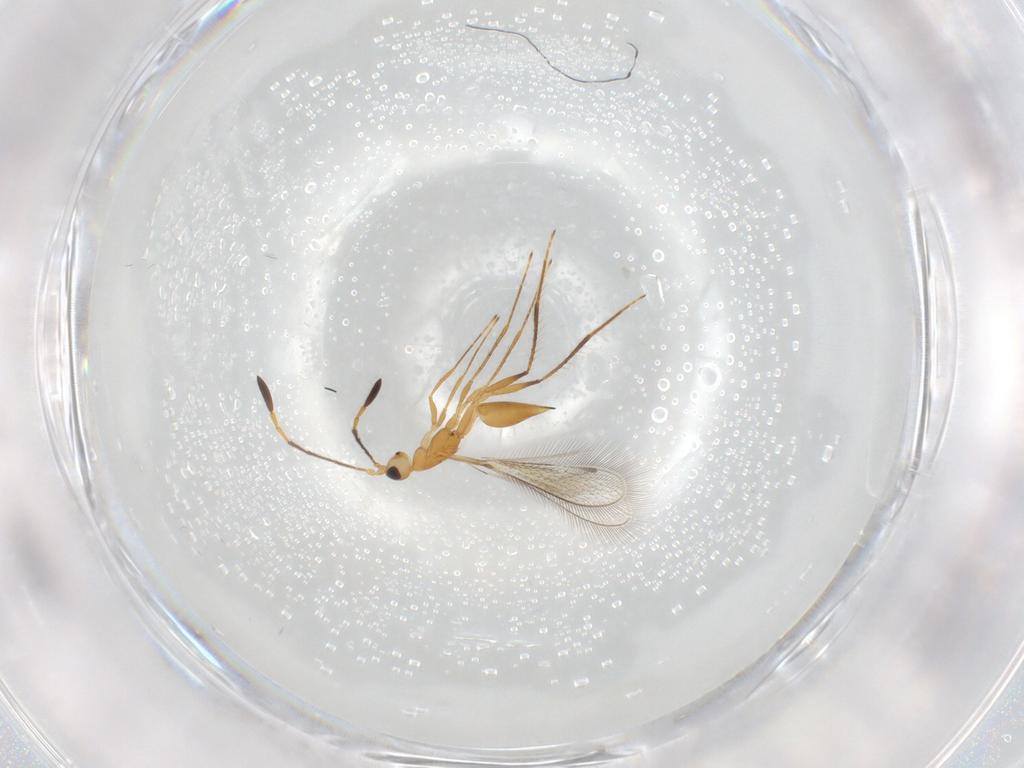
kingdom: Animalia
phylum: Arthropoda
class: Insecta
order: Hymenoptera
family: Mymaridae
